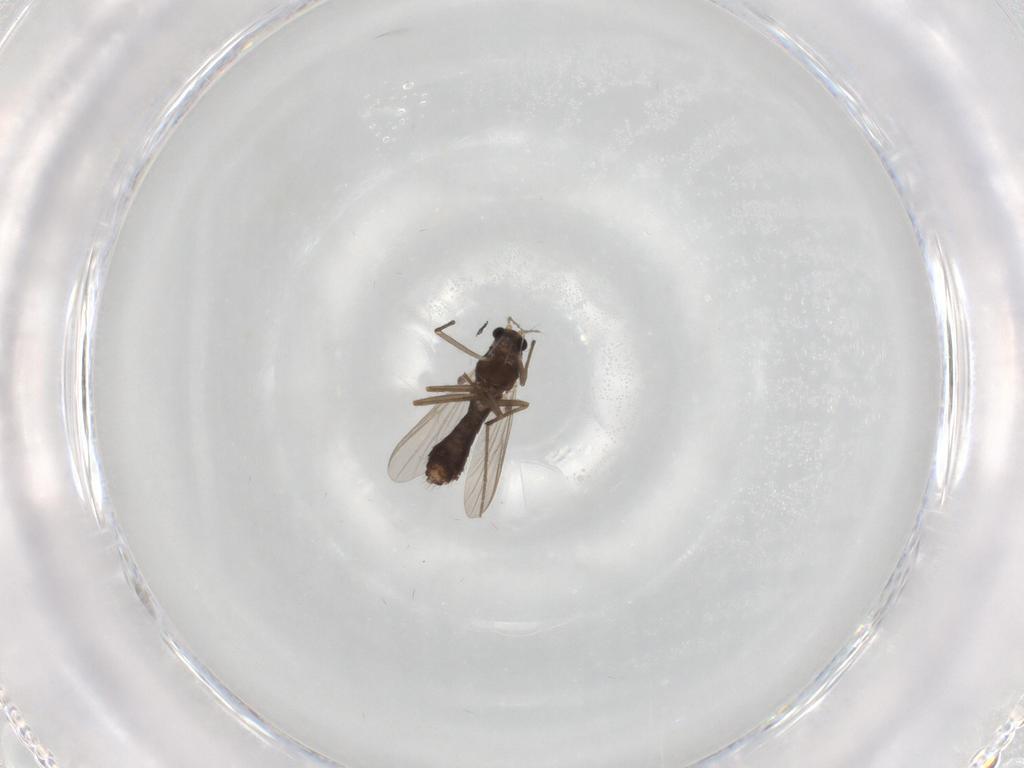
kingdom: Animalia
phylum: Arthropoda
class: Insecta
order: Diptera
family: Chironomidae
